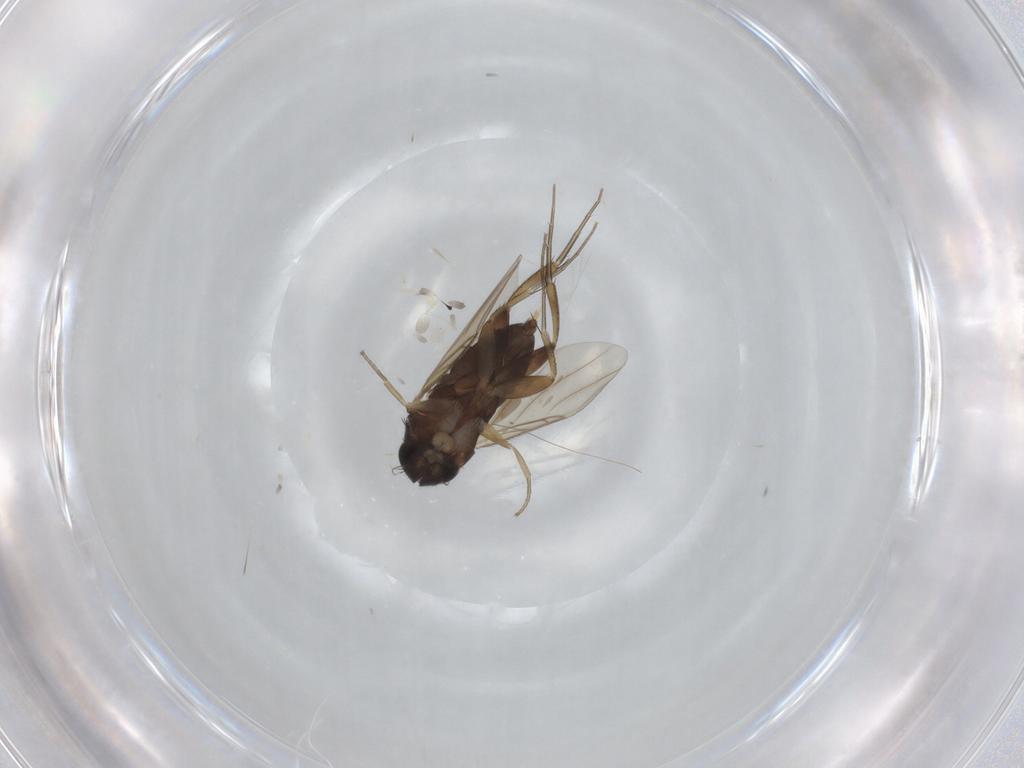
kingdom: Animalia
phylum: Arthropoda
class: Insecta
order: Diptera
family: Phoridae
